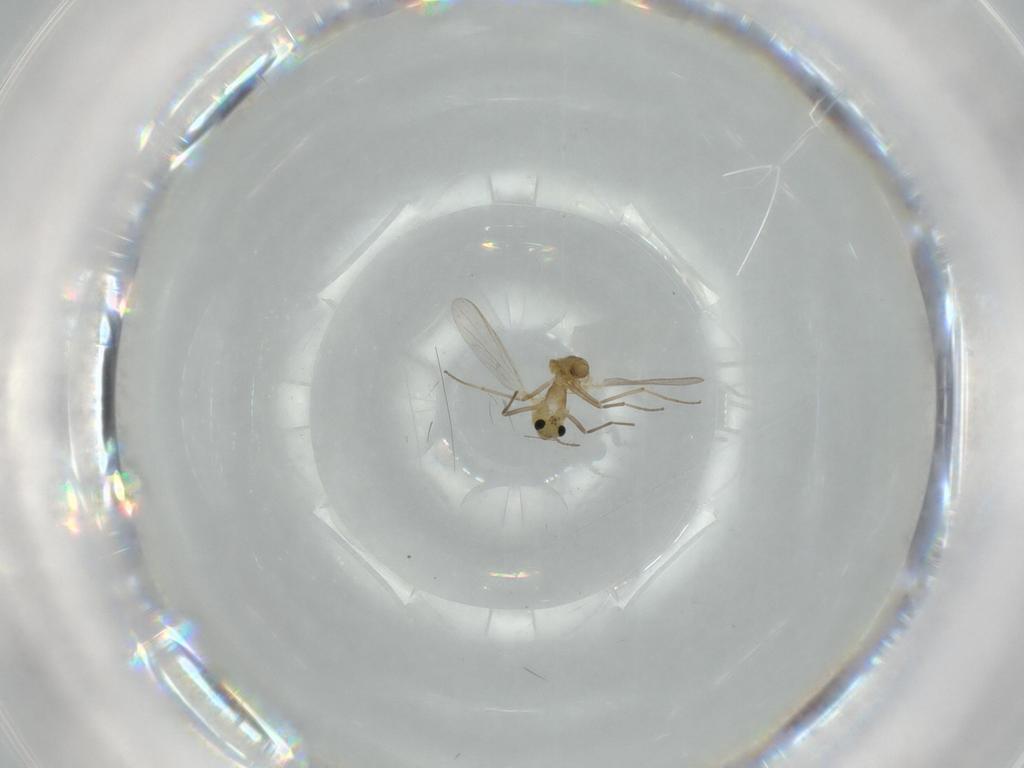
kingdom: Animalia
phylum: Arthropoda
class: Insecta
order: Diptera
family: Chironomidae
